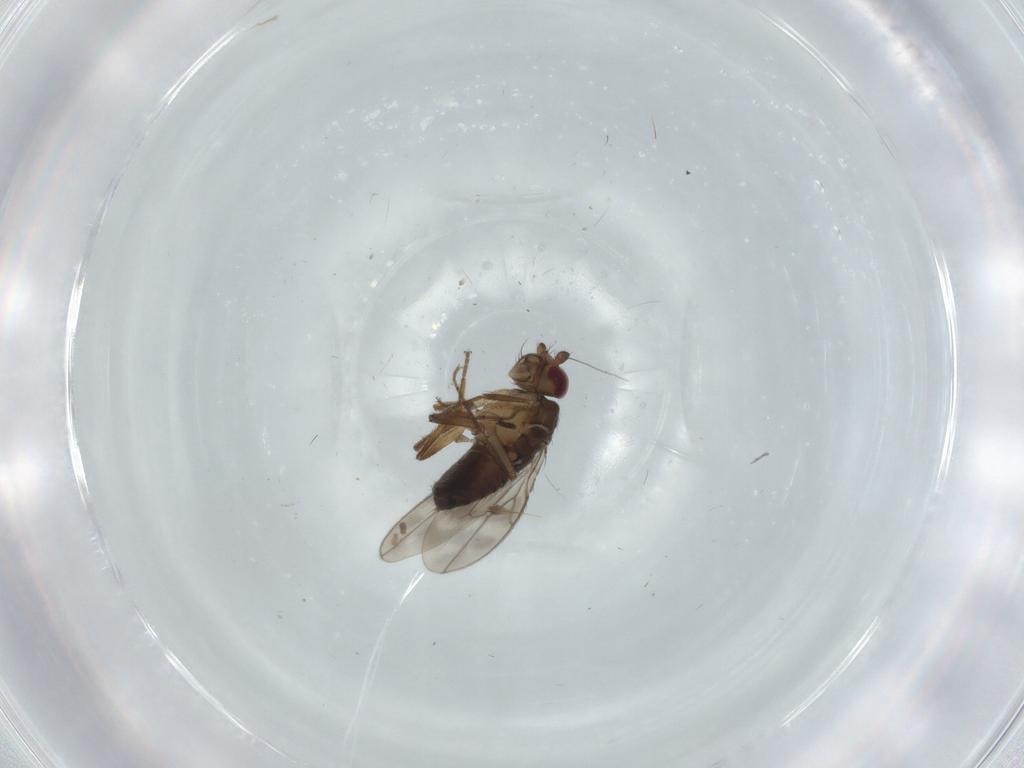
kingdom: Animalia
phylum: Arthropoda
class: Insecta
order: Diptera
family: Sphaeroceridae
